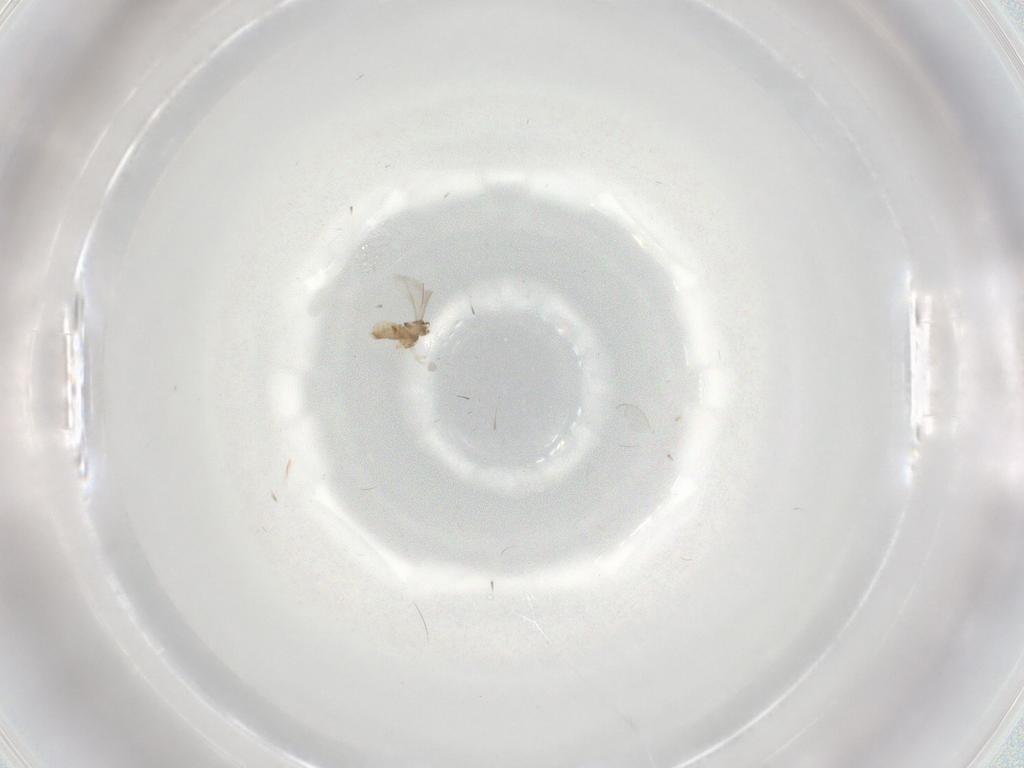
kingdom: Animalia
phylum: Arthropoda
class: Insecta
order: Diptera
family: Cecidomyiidae
